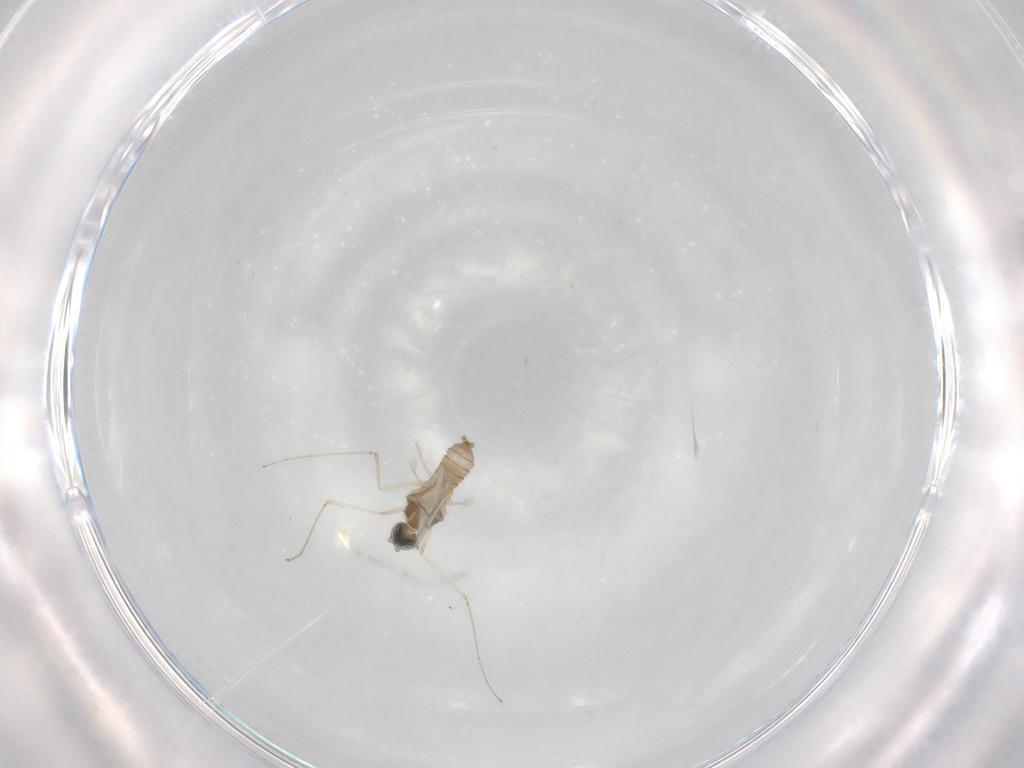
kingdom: Animalia
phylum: Arthropoda
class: Insecta
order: Diptera
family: Cecidomyiidae
